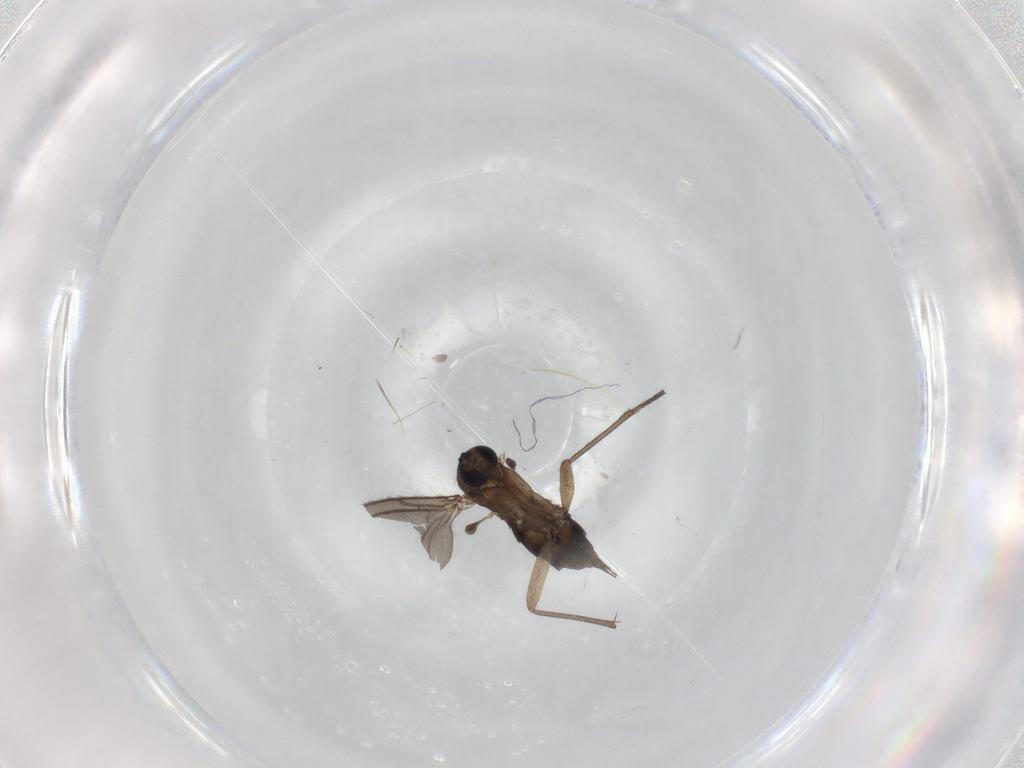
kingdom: Animalia
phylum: Arthropoda
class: Insecta
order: Diptera
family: Sciaridae
